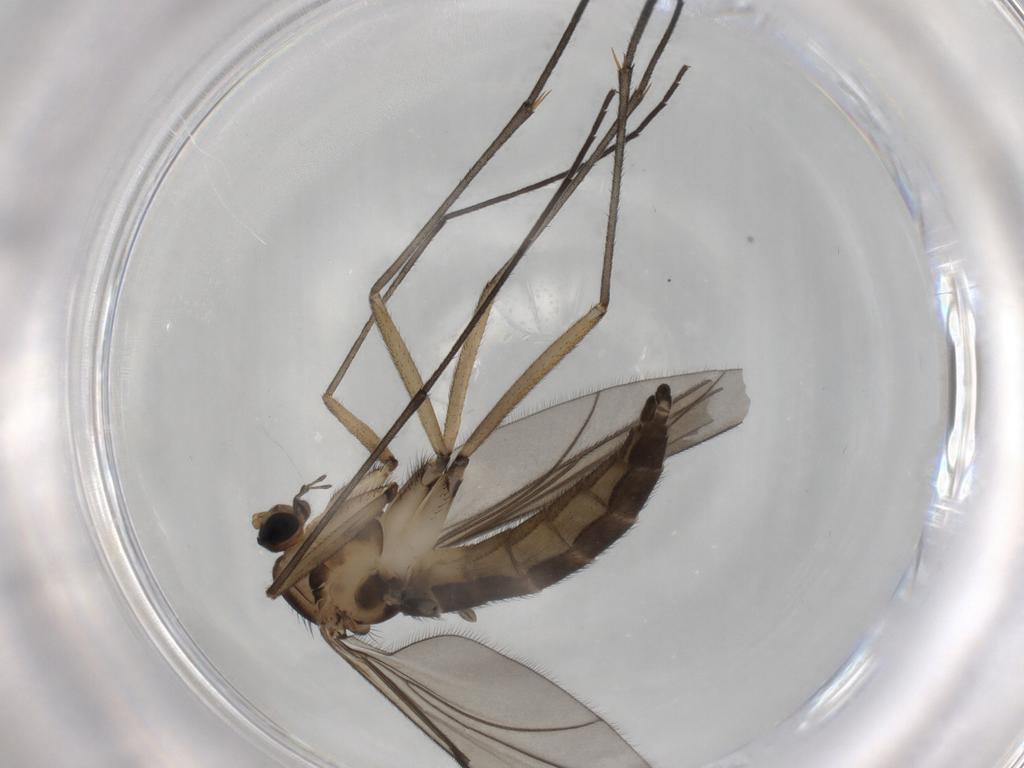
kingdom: Animalia
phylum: Arthropoda
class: Insecta
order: Diptera
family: Sciaridae
